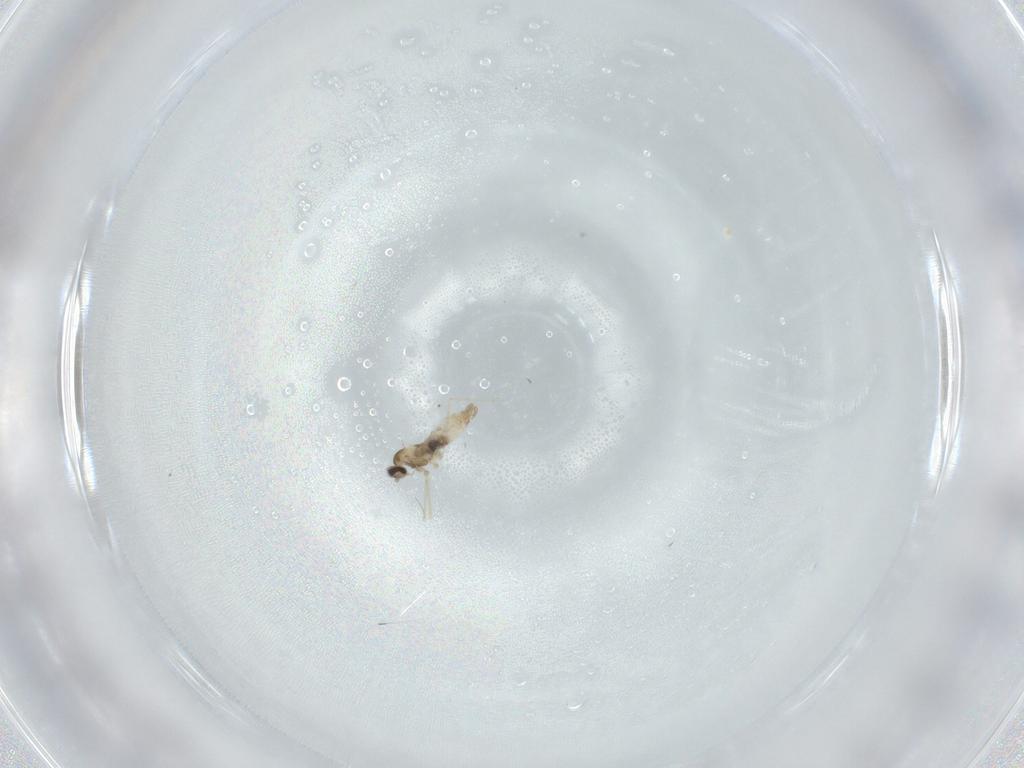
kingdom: Animalia
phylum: Arthropoda
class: Insecta
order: Diptera
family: Cecidomyiidae
